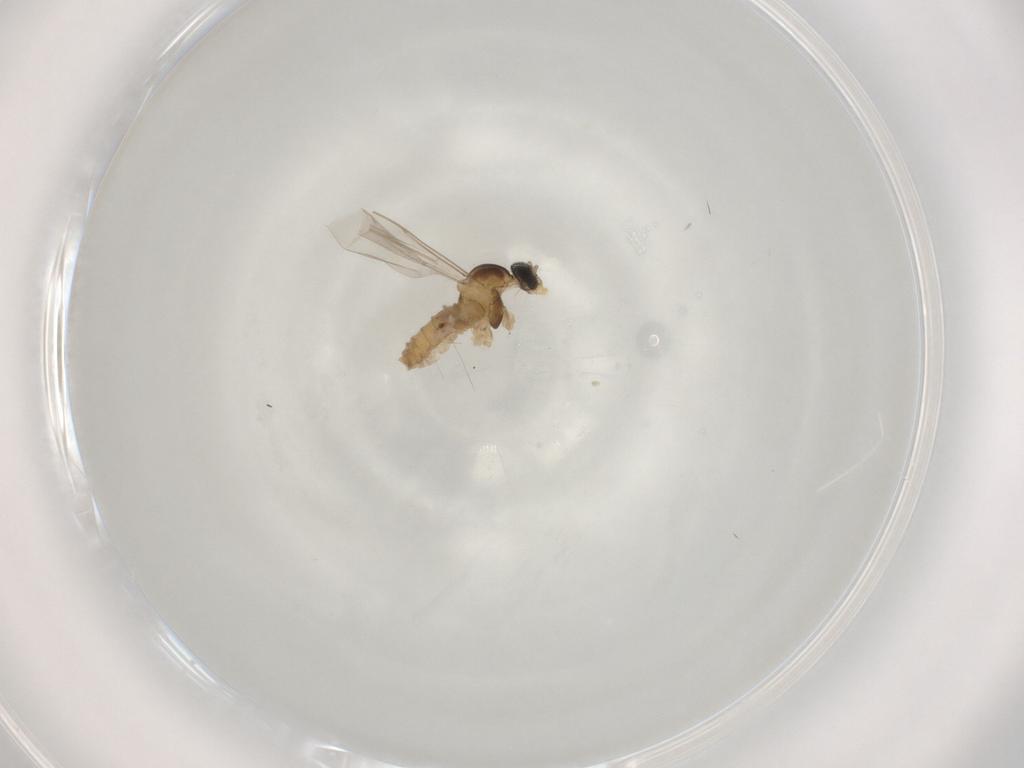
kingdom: Animalia
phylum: Arthropoda
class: Insecta
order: Diptera
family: Cecidomyiidae
